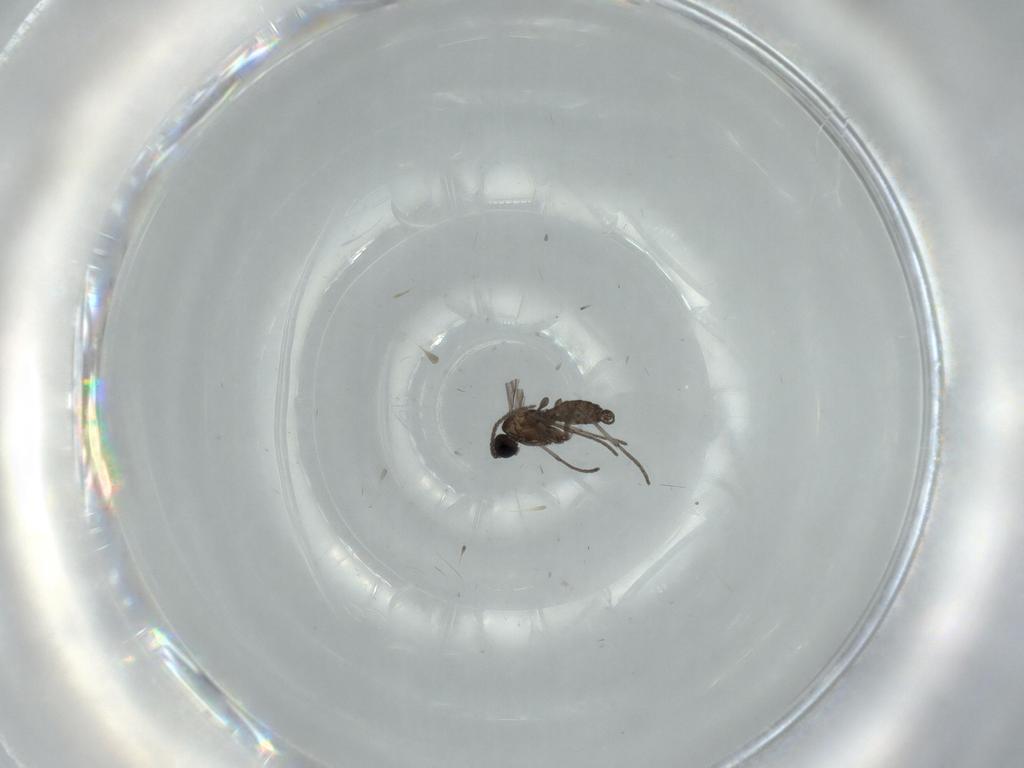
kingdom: Animalia
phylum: Arthropoda
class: Insecta
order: Diptera
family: Sciaridae
